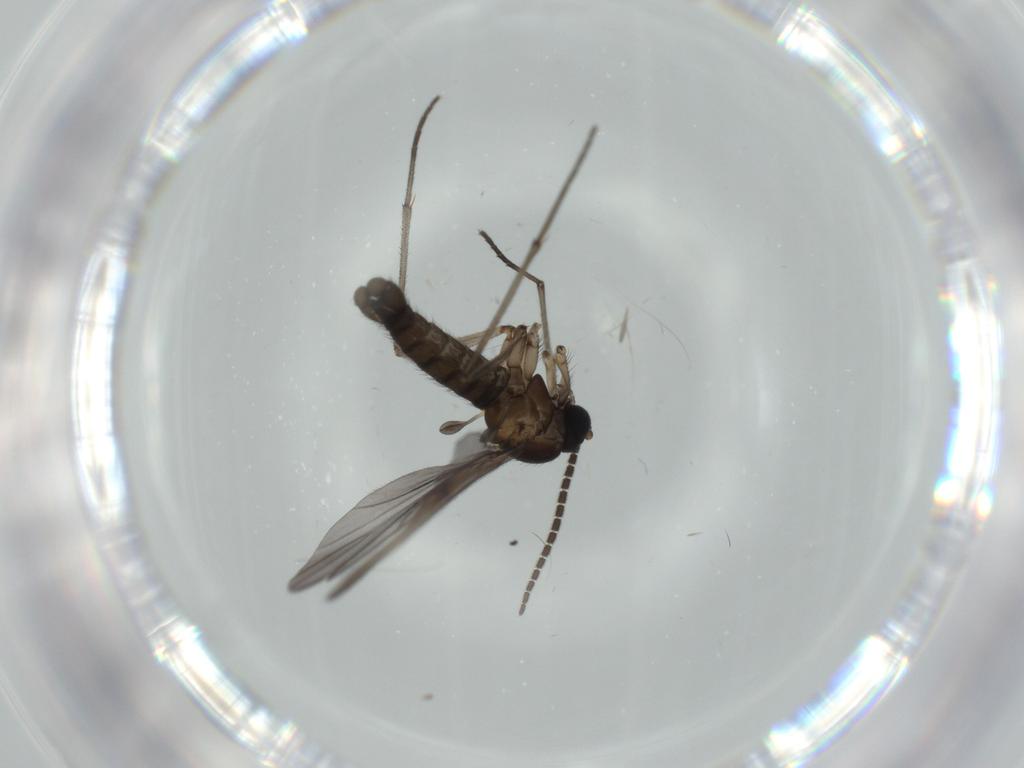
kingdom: Animalia
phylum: Arthropoda
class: Insecta
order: Diptera
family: Sciaridae
